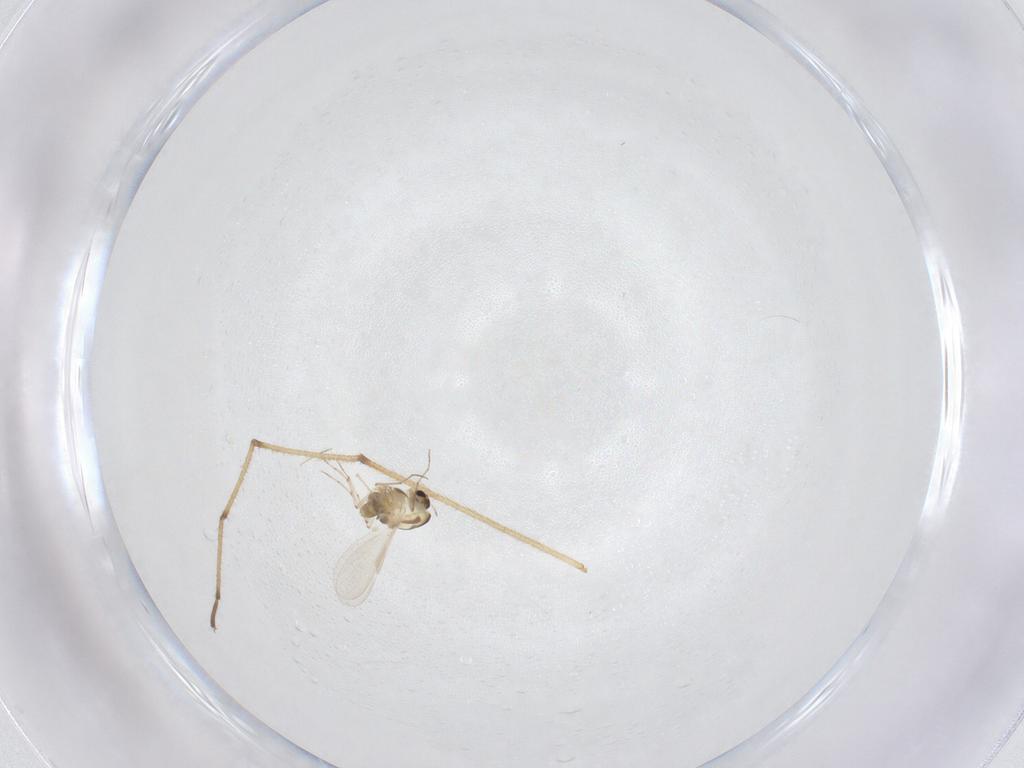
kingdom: Animalia
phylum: Arthropoda
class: Insecta
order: Diptera
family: Chironomidae
